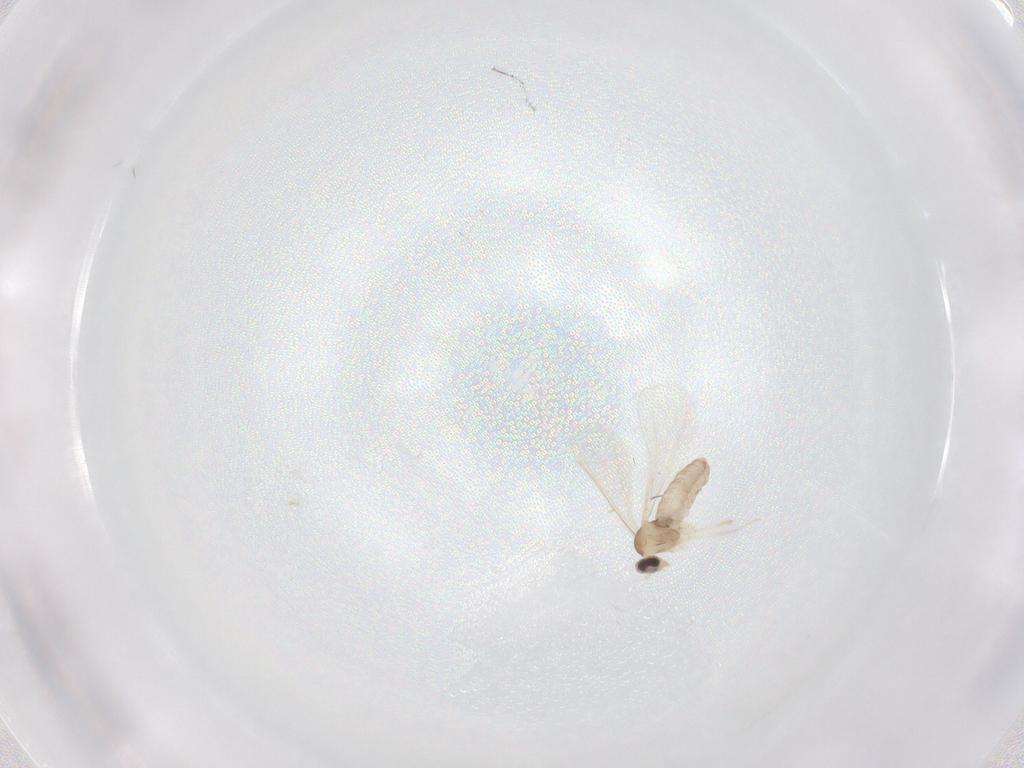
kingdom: Animalia
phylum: Arthropoda
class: Insecta
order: Diptera
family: Cecidomyiidae
